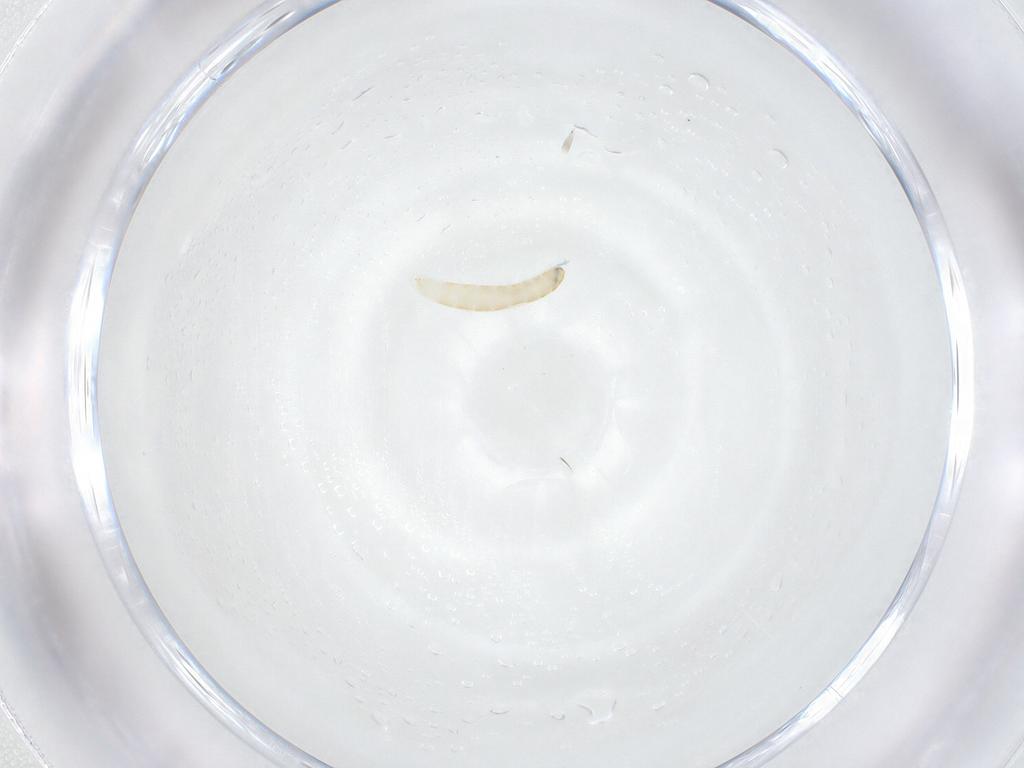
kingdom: Animalia
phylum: Arthropoda
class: Insecta
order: Diptera
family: Tachinidae
